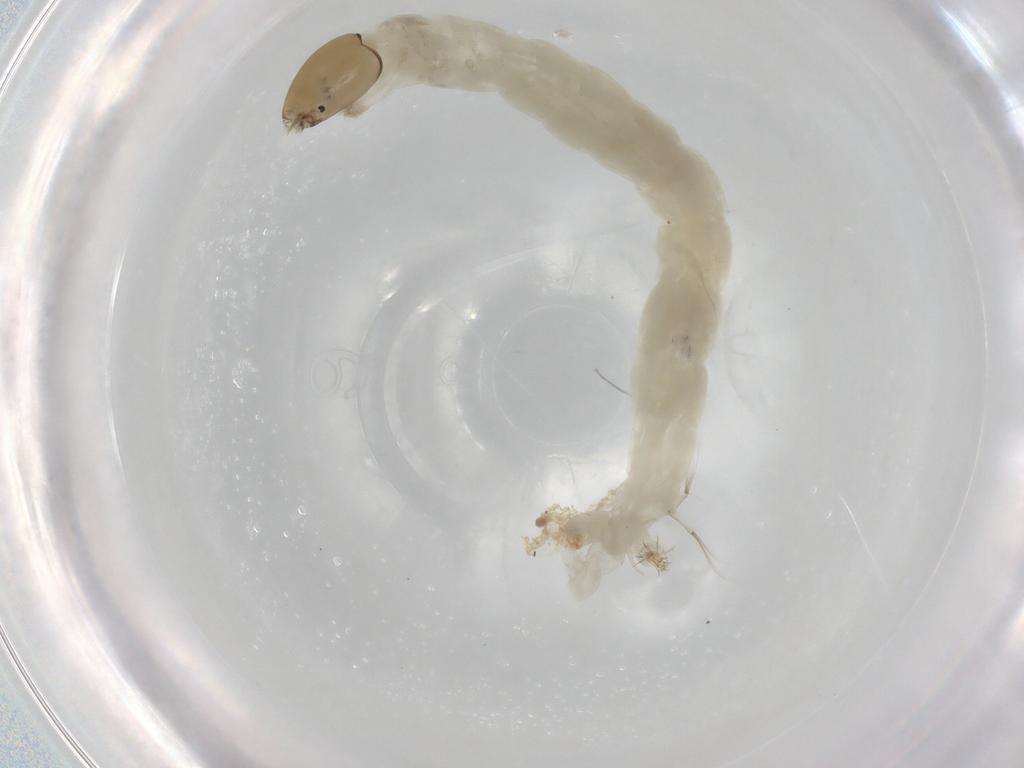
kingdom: Animalia
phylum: Arthropoda
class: Insecta
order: Diptera
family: Chironomidae
